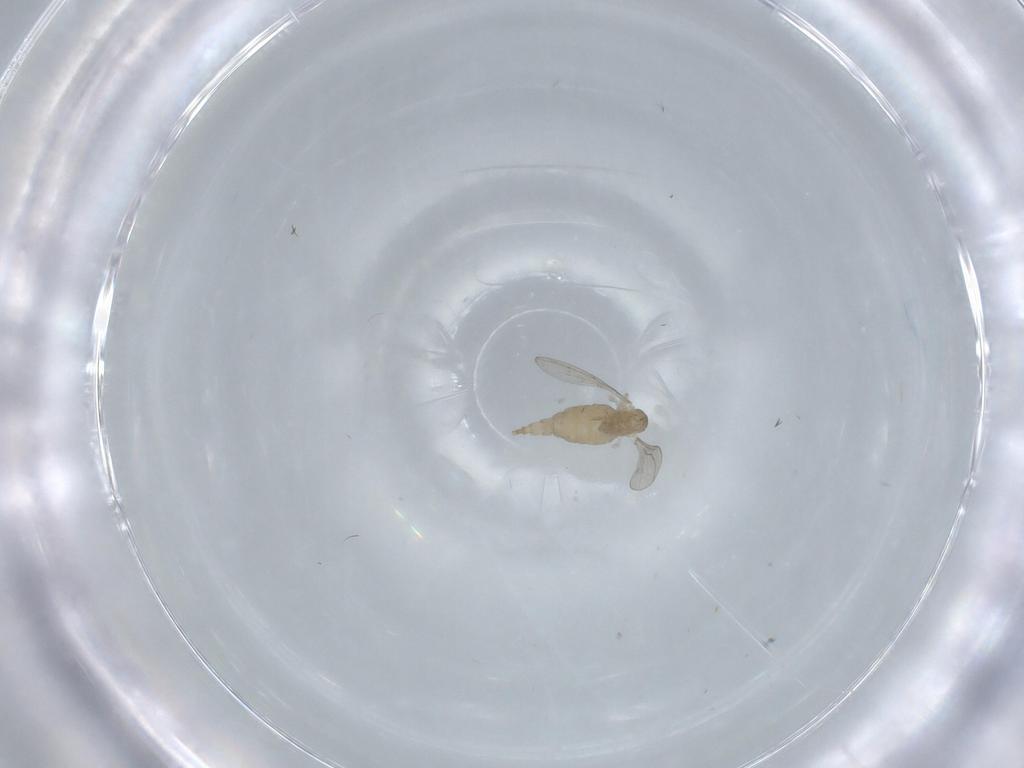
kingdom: Animalia
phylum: Arthropoda
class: Insecta
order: Diptera
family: Cecidomyiidae
